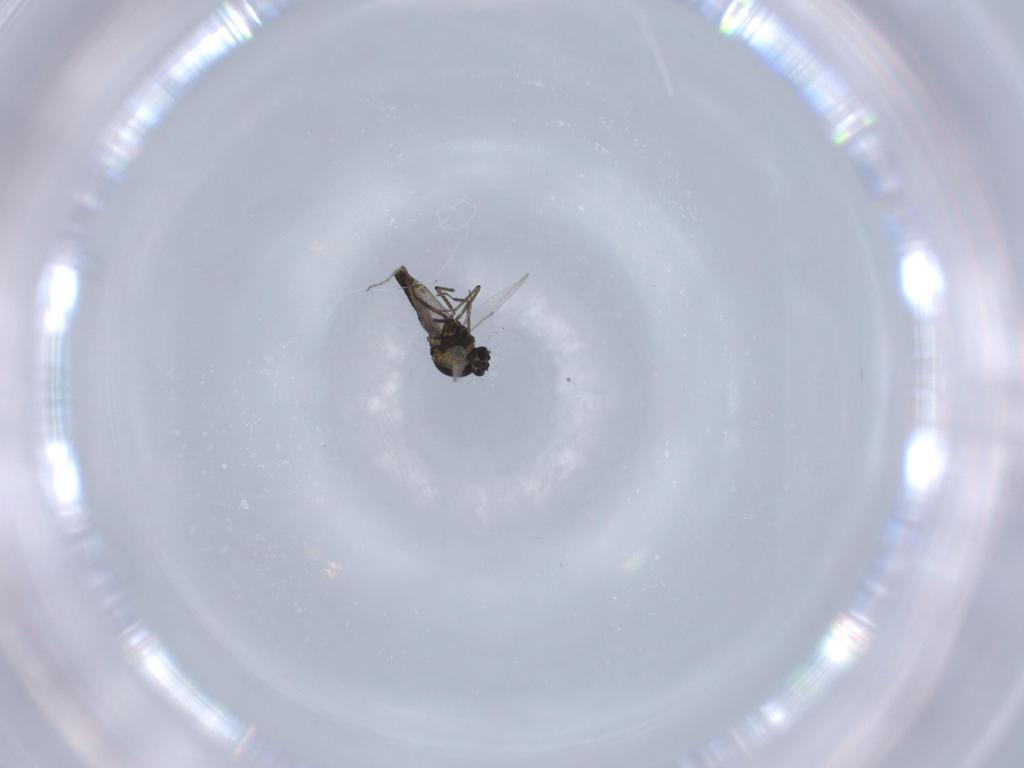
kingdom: Animalia
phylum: Arthropoda
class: Insecta
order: Diptera
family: Ceratopogonidae
